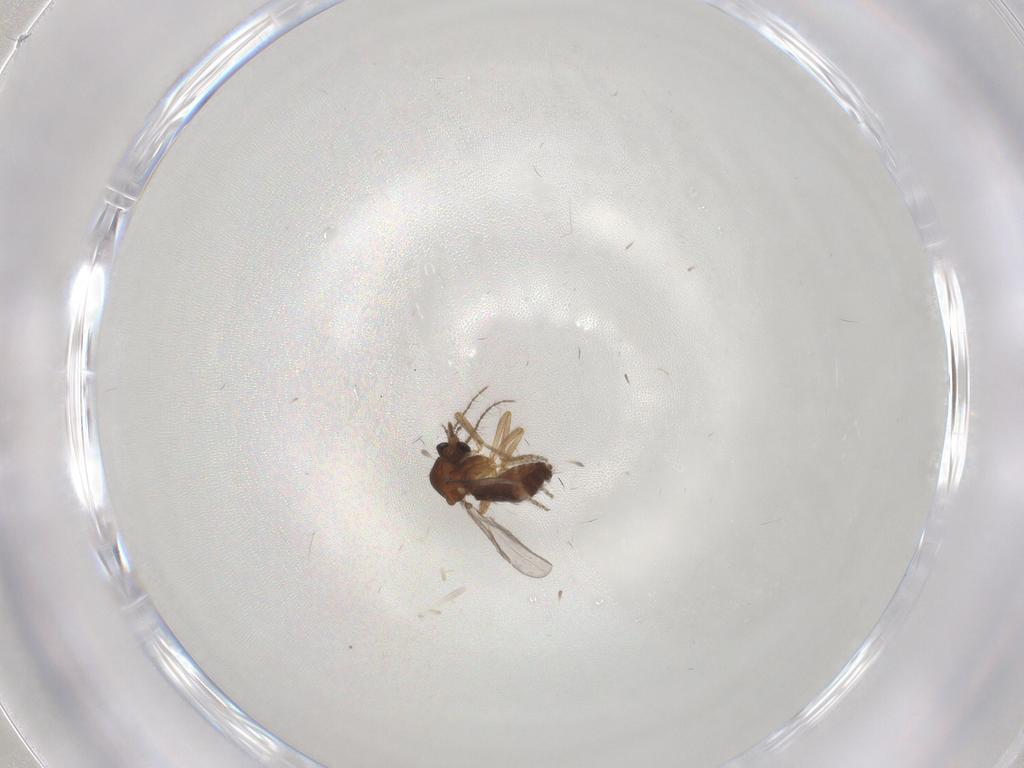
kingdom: Animalia
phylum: Arthropoda
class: Insecta
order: Diptera
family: Ceratopogonidae
